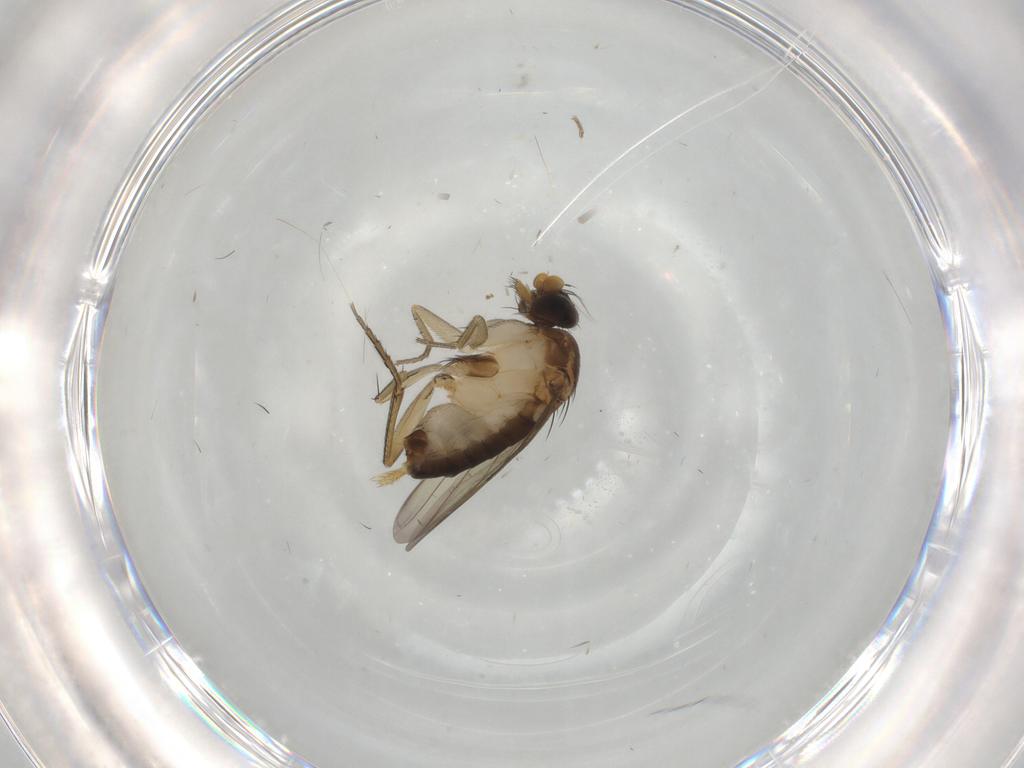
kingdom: Animalia
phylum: Arthropoda
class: Insecta
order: Diptera
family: Phoridae
